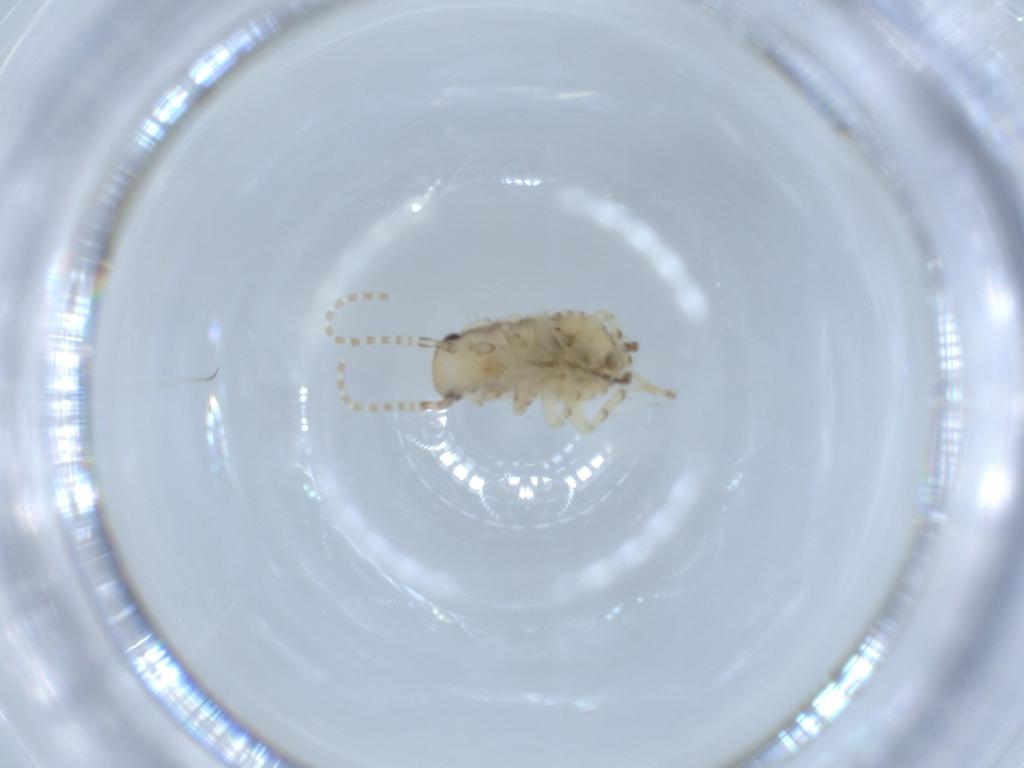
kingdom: Animalia
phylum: Arthropoda
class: Insecta
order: Blattodea
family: Ectobiidae
